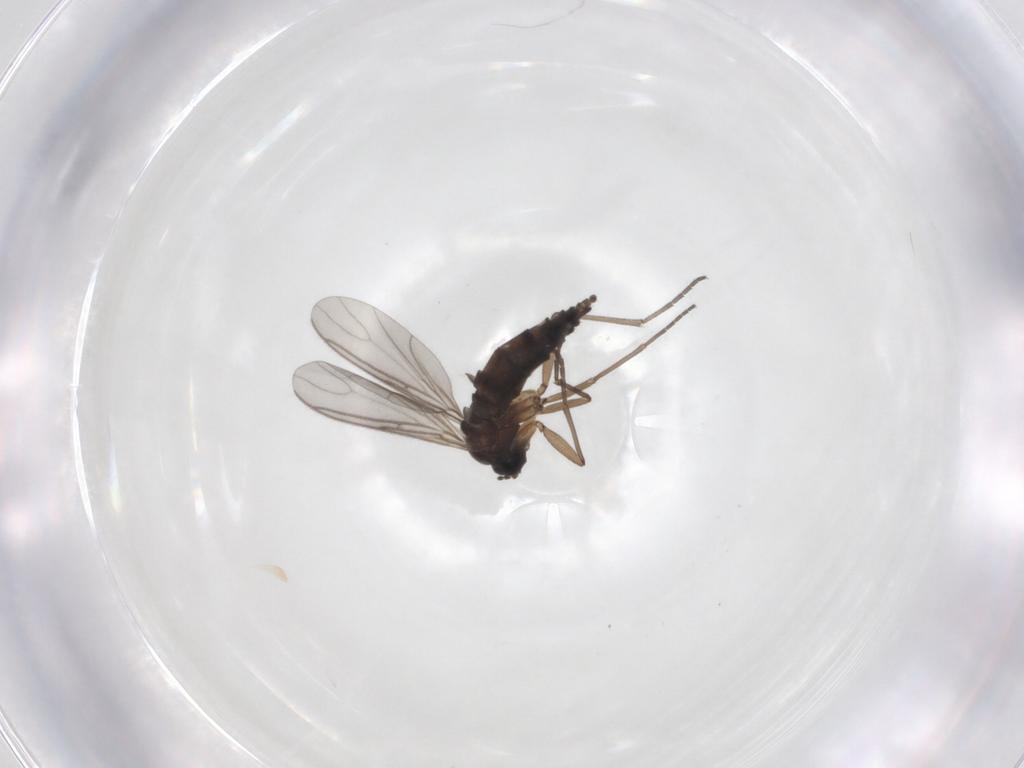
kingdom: Animalia
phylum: Arthropoda
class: Insecta
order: Diptera
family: Sciaridae
